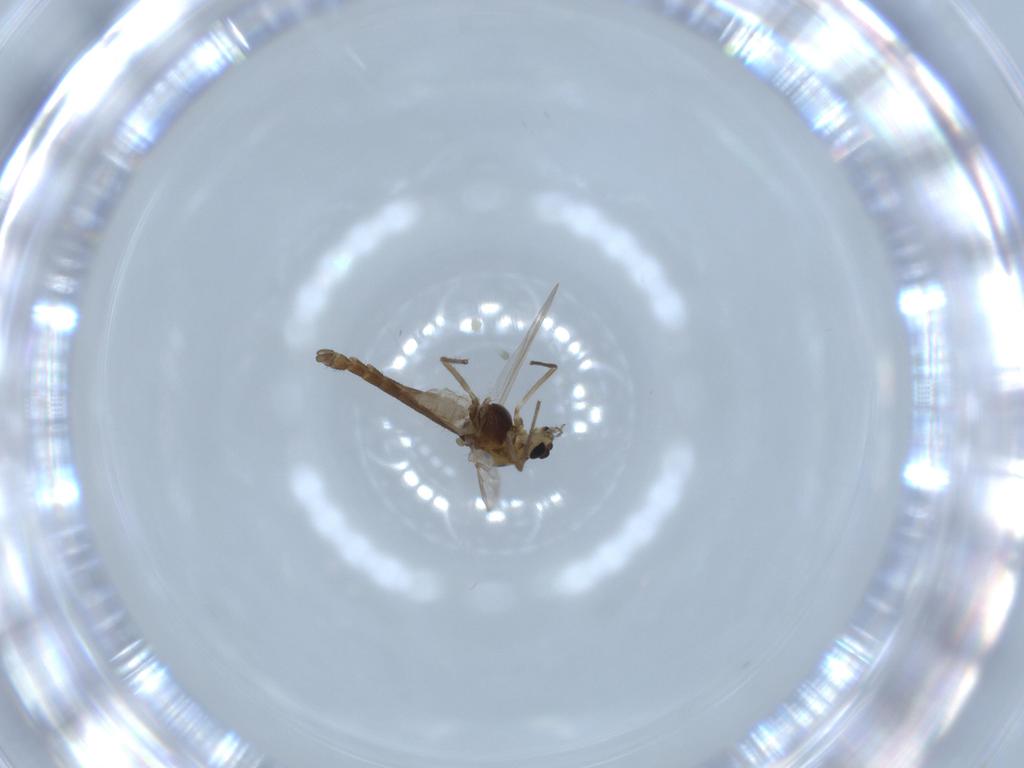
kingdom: Animalia
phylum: Arthropoda
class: Insecta
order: Diptera
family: Chironomidae
